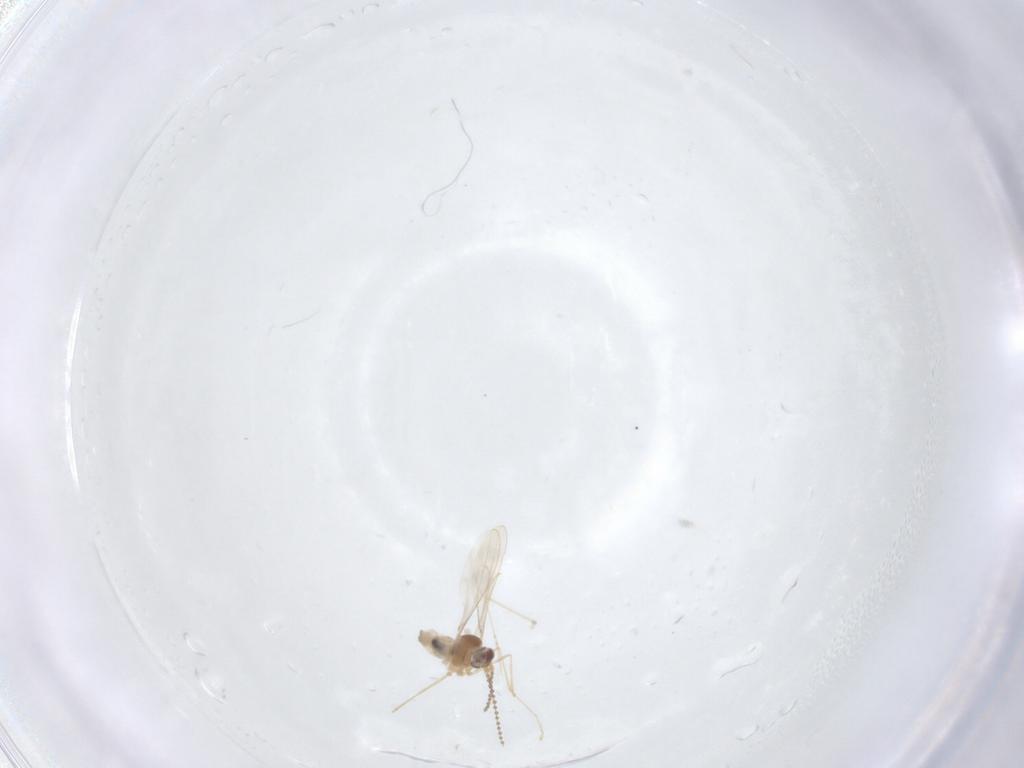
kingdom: Animalia
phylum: Arthropoda
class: Insecta
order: Diptera
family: Cecidomyiidae
